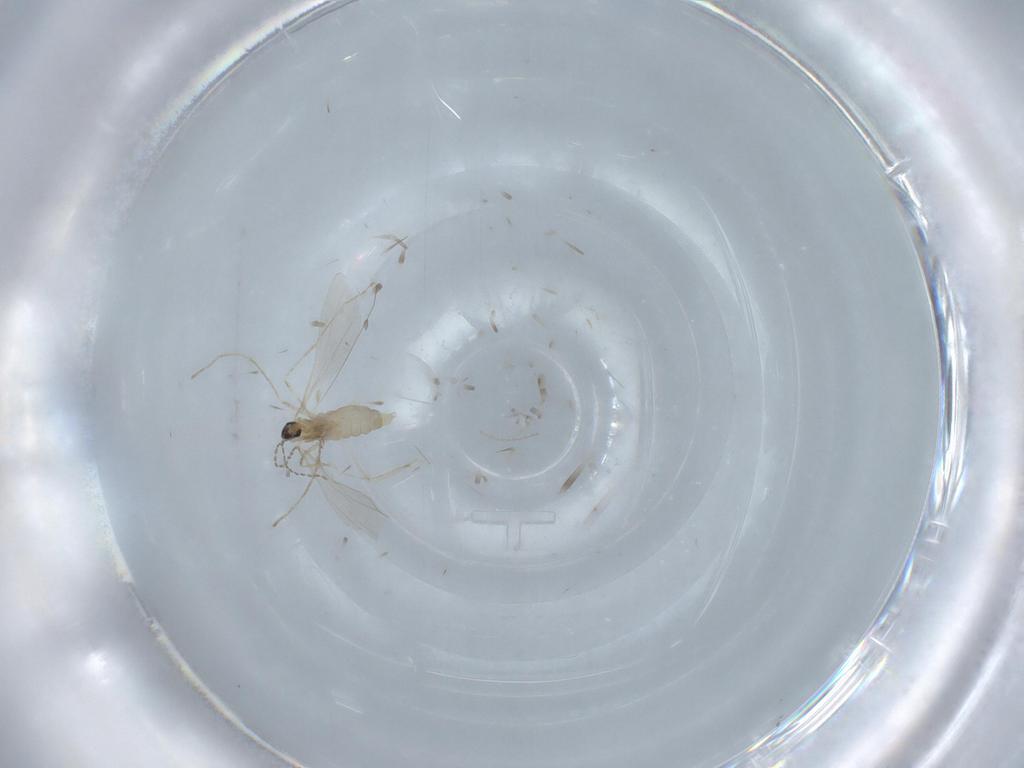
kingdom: Animalia
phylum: Arthropoda
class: Insecta
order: Diptera
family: Cecidomyiidae
